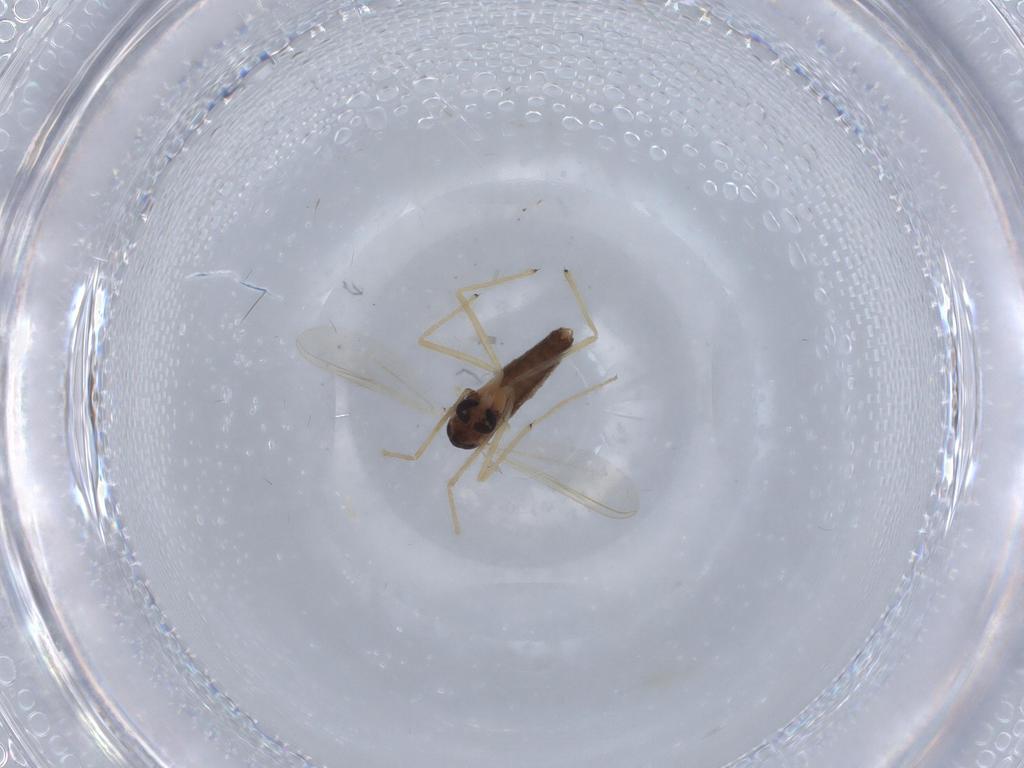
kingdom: Animalia
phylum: Arthropoda
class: Insecta
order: Diptera
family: Chironomidae
